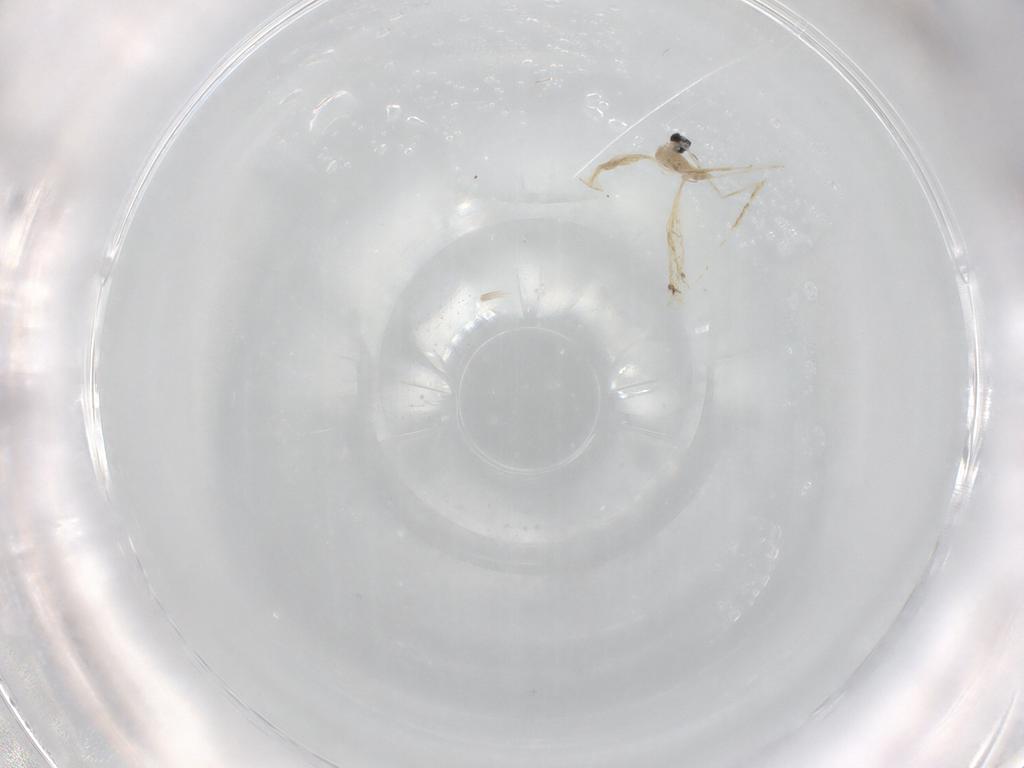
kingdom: Animalia
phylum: Arthropoda
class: Insecta
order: Diptera
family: Cecidomyiidae
